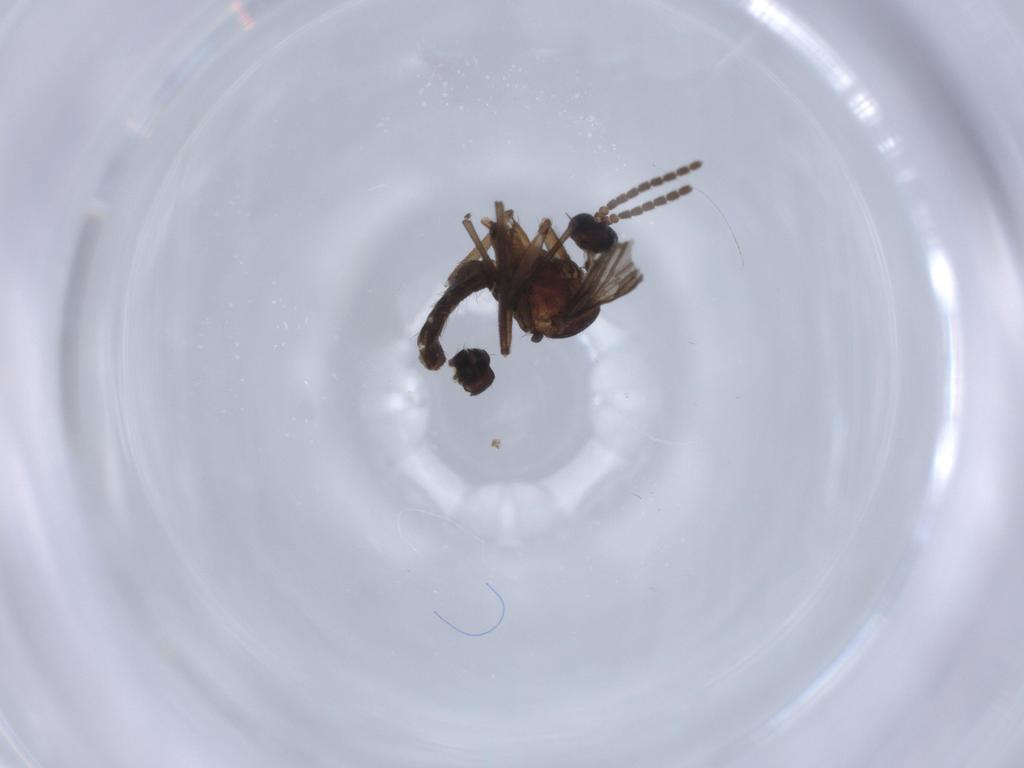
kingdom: Animalia
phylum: Arthropoda
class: Insecta
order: Diptera
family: Sciaridae
